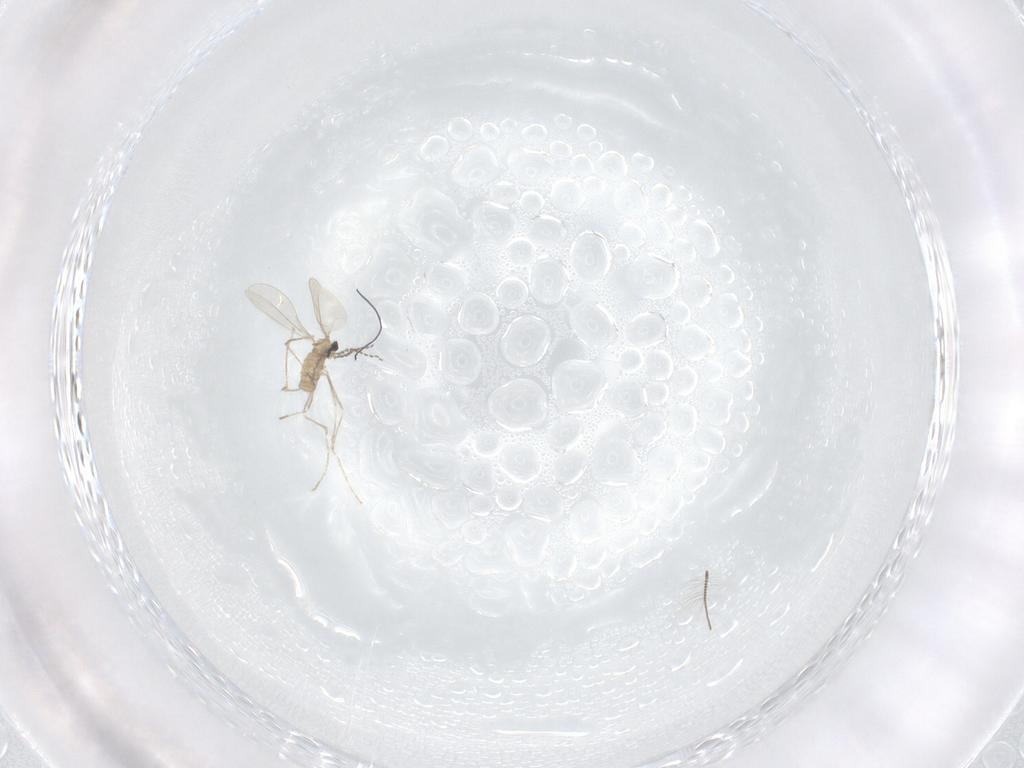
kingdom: Animalia
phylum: Arthropoda
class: Insecta
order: Diptera
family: Cecidomyiidae
